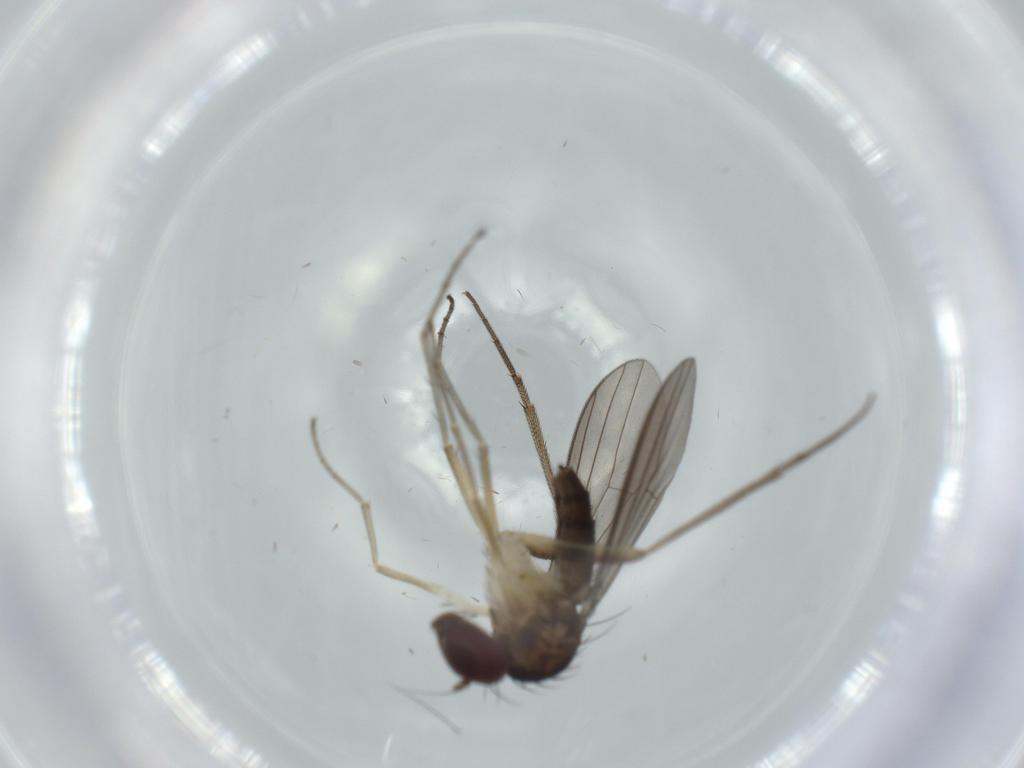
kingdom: Animalia
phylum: Arthropoda
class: Insecta
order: Diptera
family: Dolichopodidae
